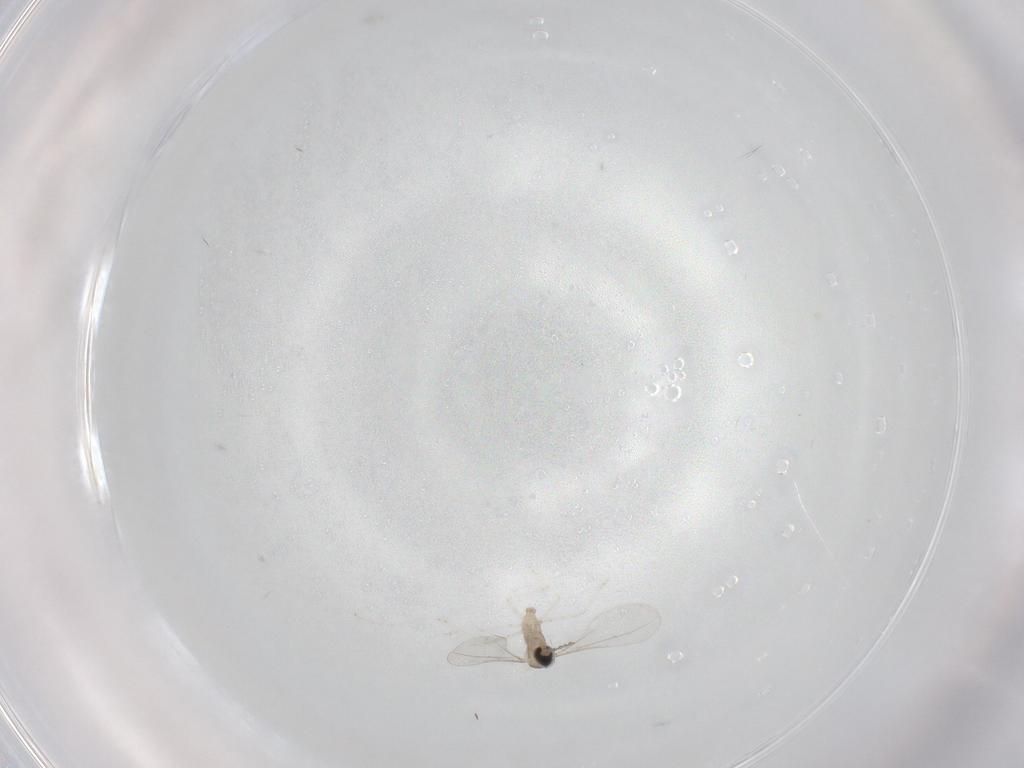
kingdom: Animalia
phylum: Arthropoda
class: Insecta
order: Diptera
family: Cecidomyiidae
